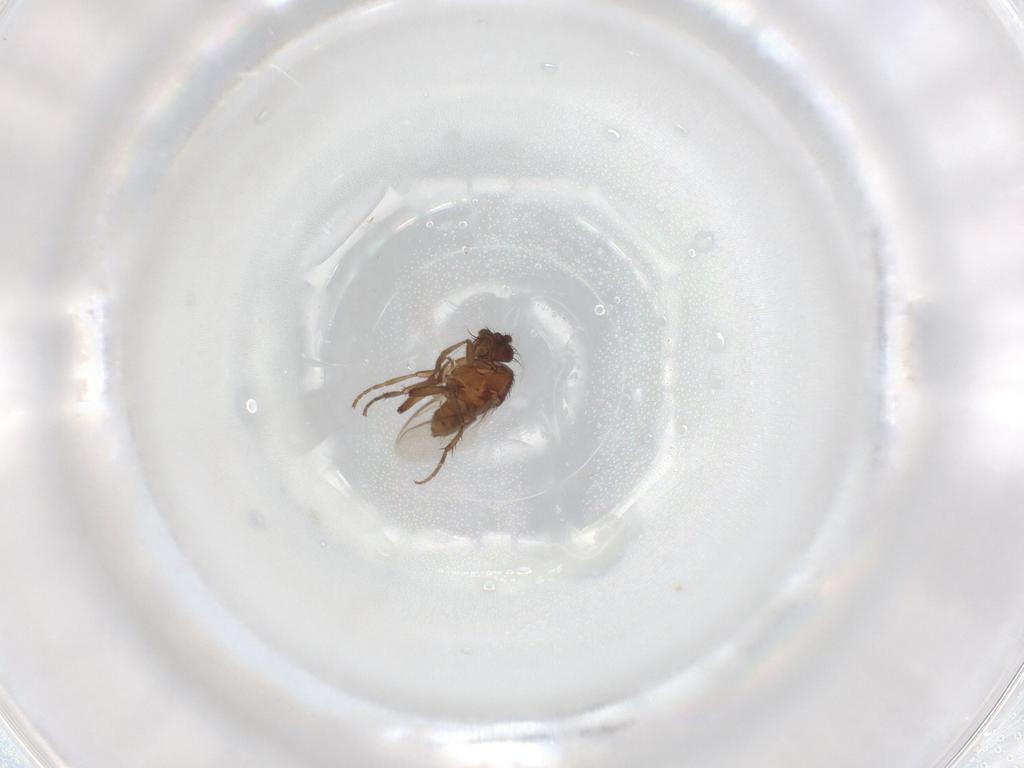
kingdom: Animalia
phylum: Arthropoda
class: Insecta
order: Diptera
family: Sphaeroceridae
